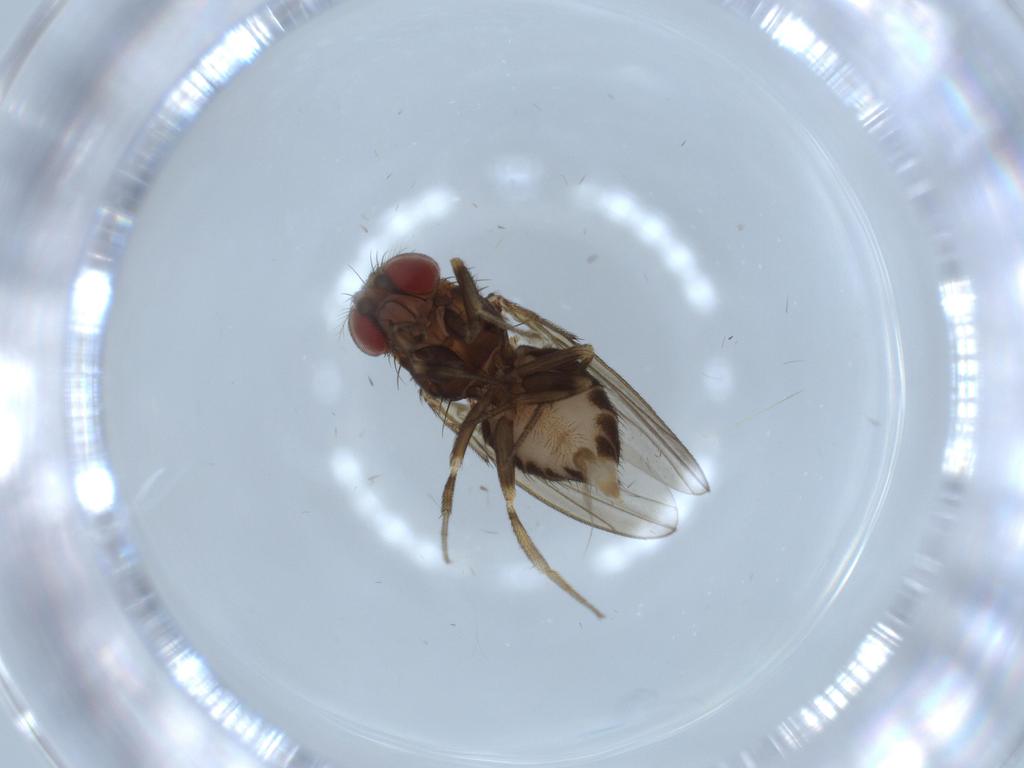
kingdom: Animalia
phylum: Arthropoda
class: Insecta
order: Diptera
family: Drosophilidae
